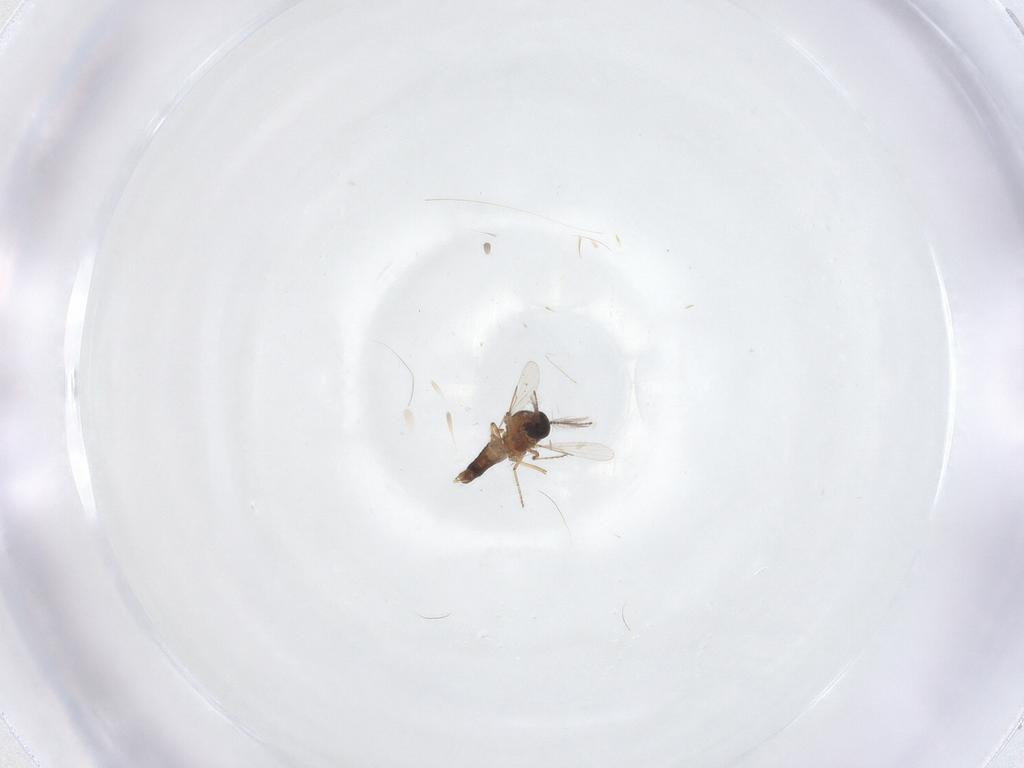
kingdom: Animalia
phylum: Arthropoda
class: Insecta
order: Diptera
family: Ceratopogonidae
